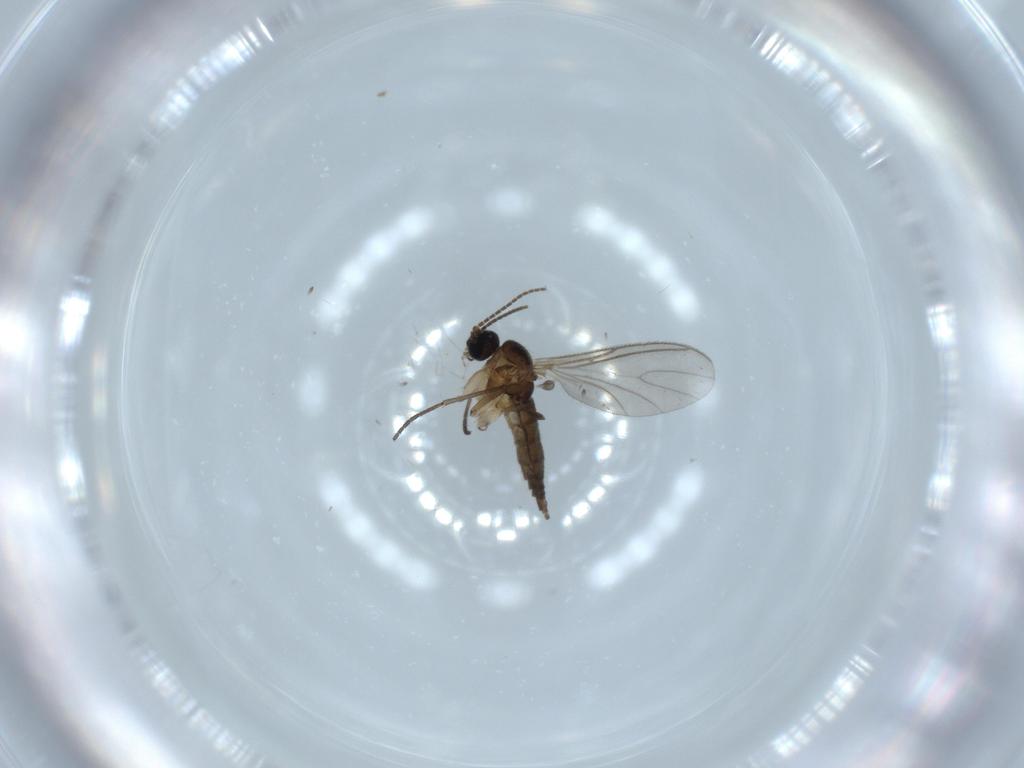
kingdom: Animalia
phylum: Arthropoda
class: Insecta
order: Diptera
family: Sciaridae
